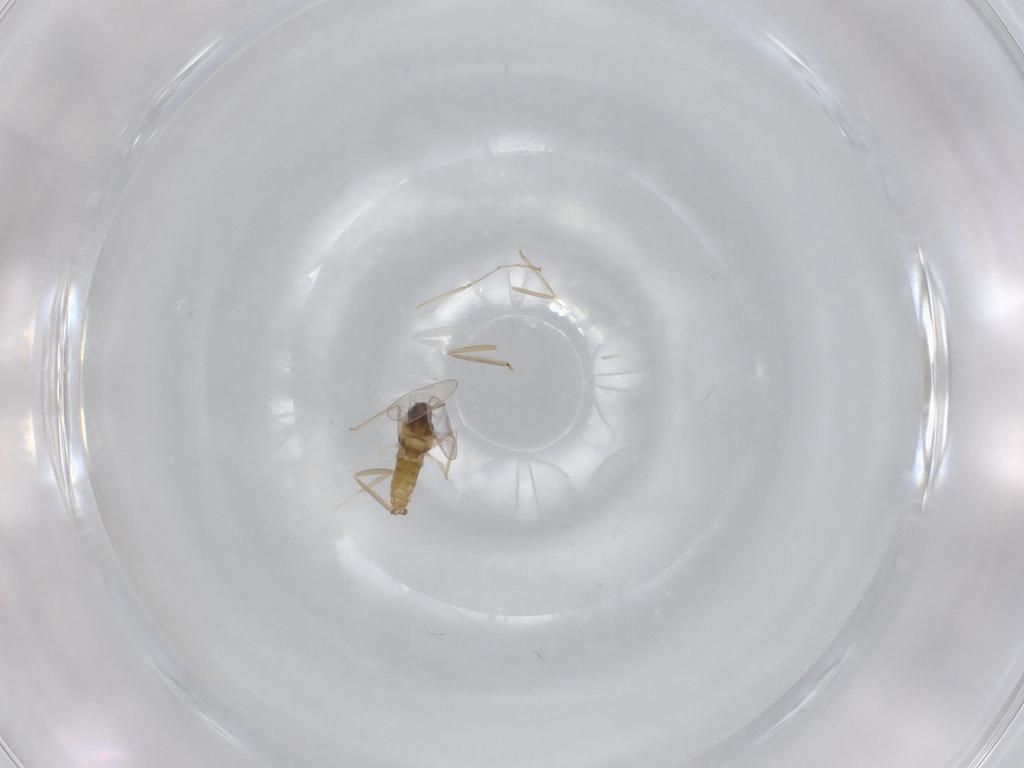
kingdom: Animalia
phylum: Arthropoda
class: Insecta
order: Diptera
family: Cecidomyiidae
